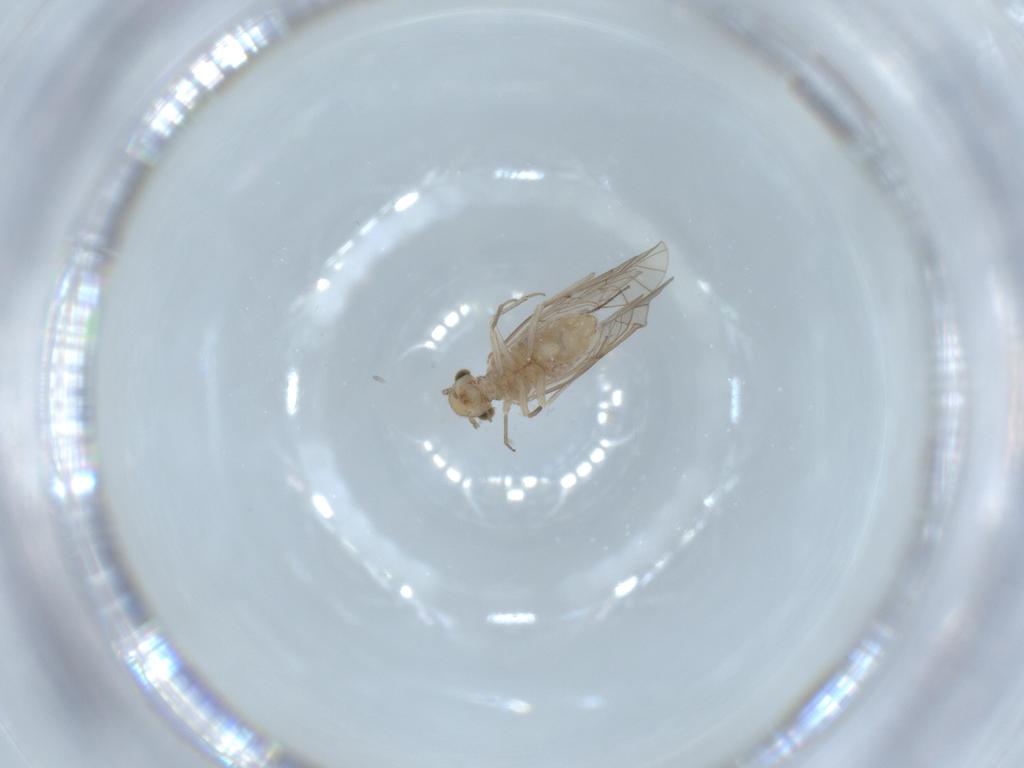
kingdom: Animalia
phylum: Arthropoda
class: Insecta
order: Psocodea
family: Lachesillidae
